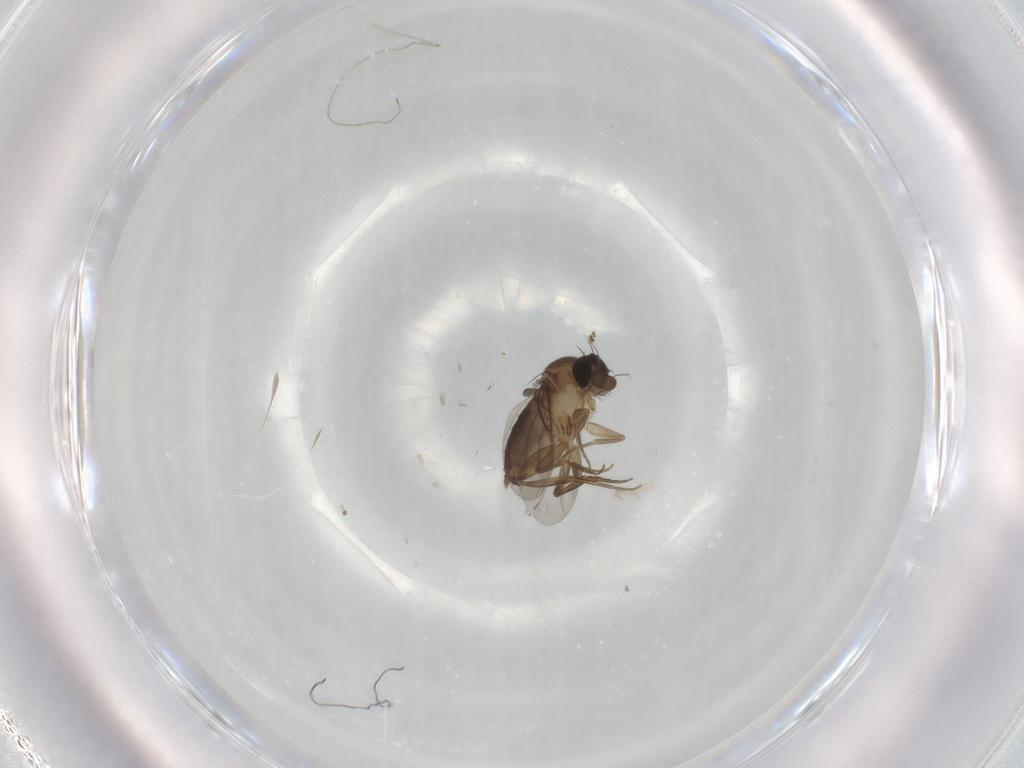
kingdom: Animalia
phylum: Arthropoda
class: Insecta
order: Diptera
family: Phoridae
